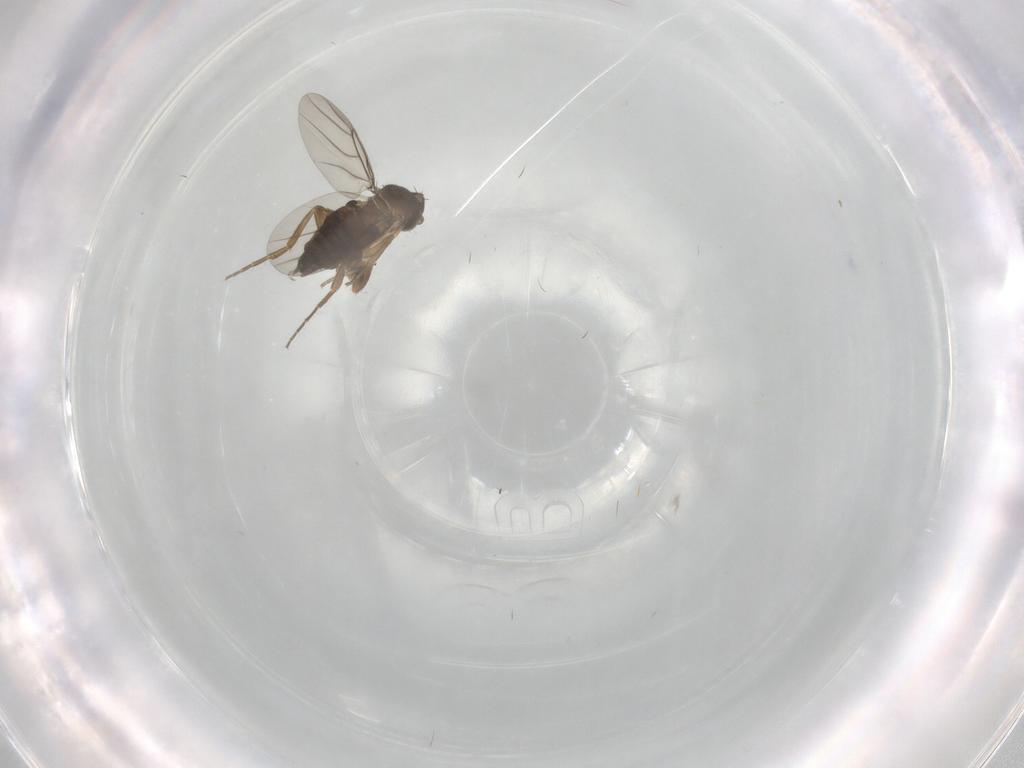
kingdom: Animalia
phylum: Arthropoda
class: Insecta
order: Diptera
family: Phoridae
